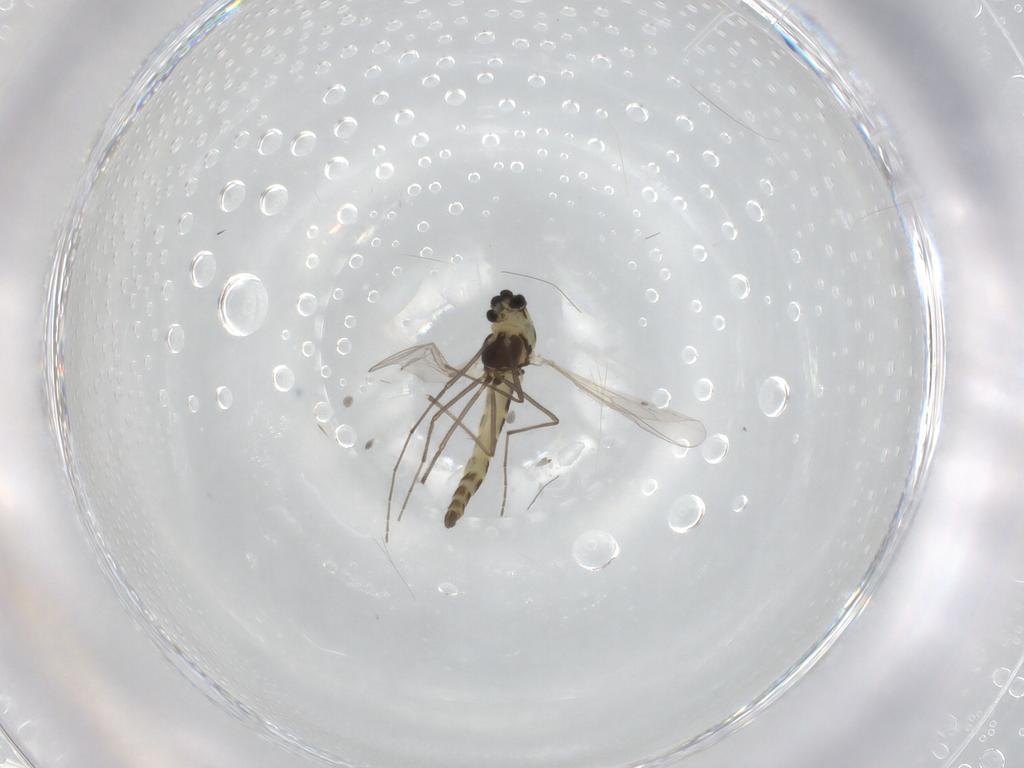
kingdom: Animalia
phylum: Arthropoda
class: Insecta
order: Diptera
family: Chironomidae
